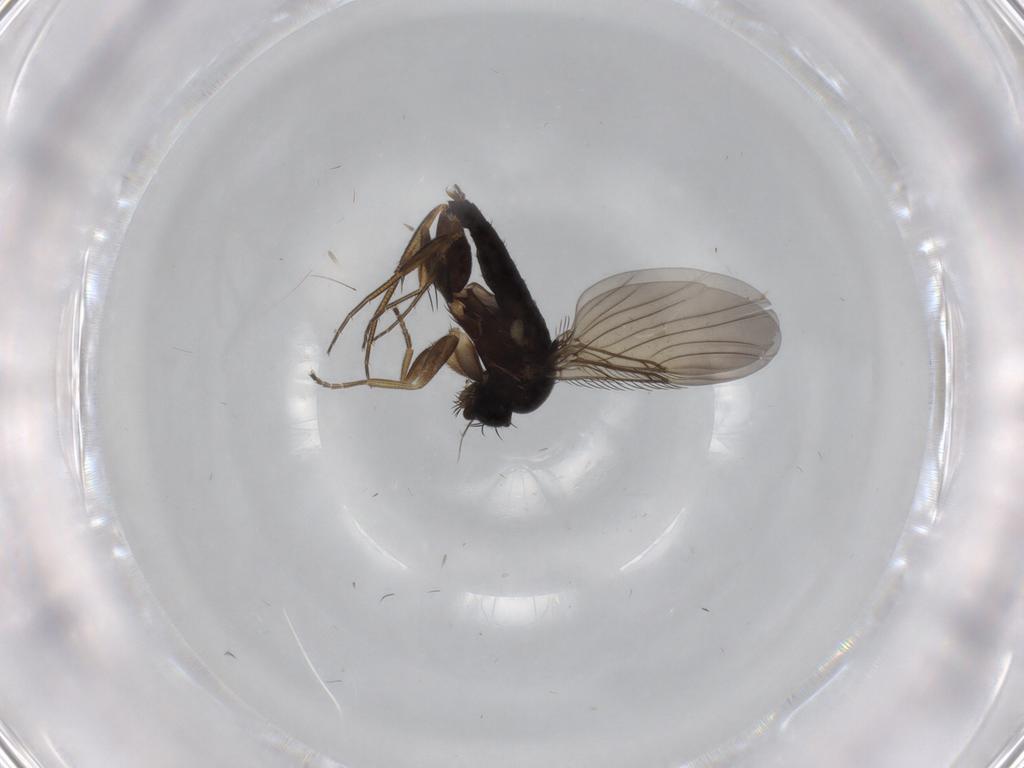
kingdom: Animalia
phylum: Arthropoda
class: Insecta
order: Diptera
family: Phoridae
